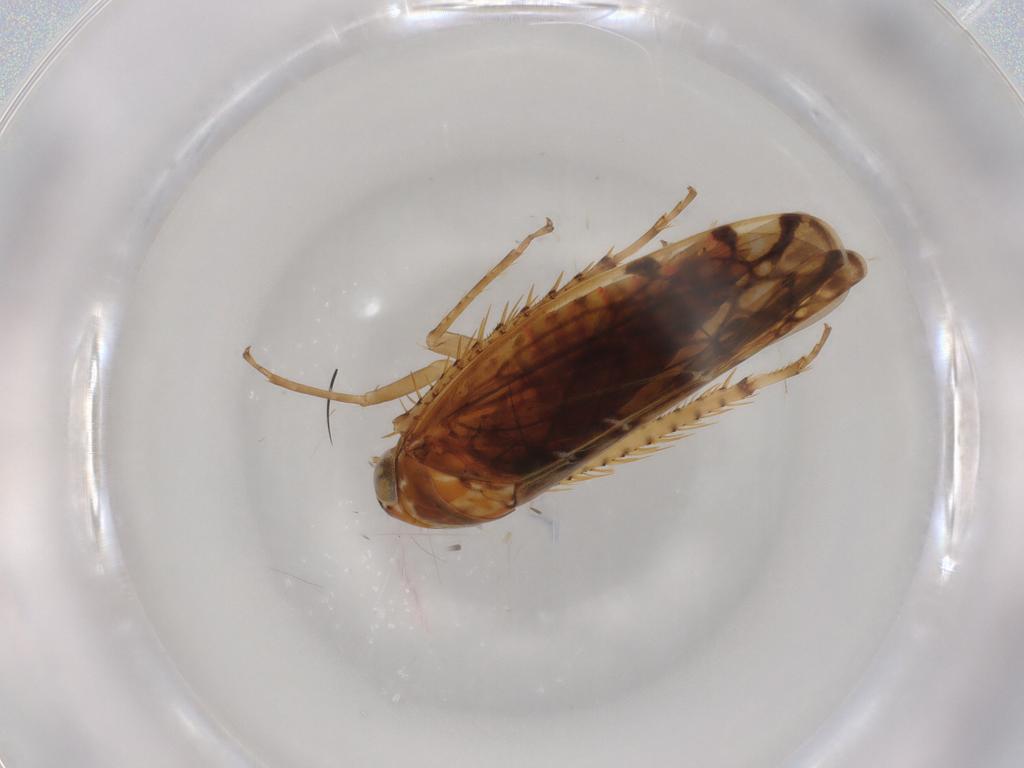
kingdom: Animalia
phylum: Arthropoda
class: Insecta
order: Hemiptera
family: Cicadellidae
